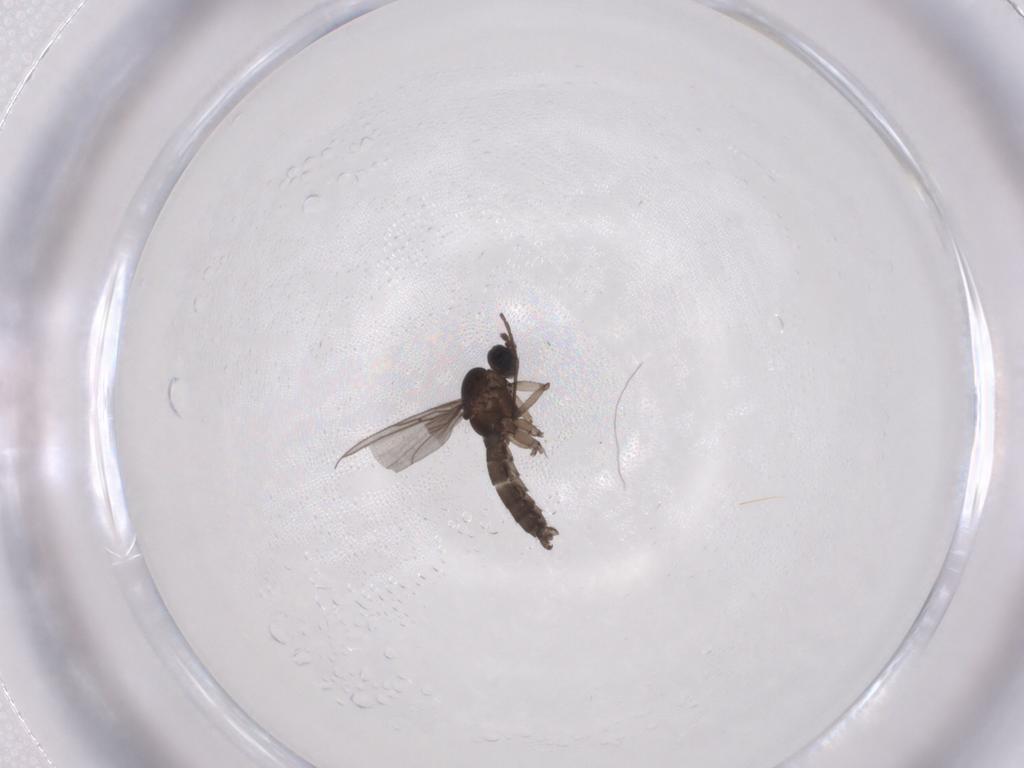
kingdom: Animalia
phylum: Arthropoda
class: Insecta
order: Diptera
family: Sciaridae
